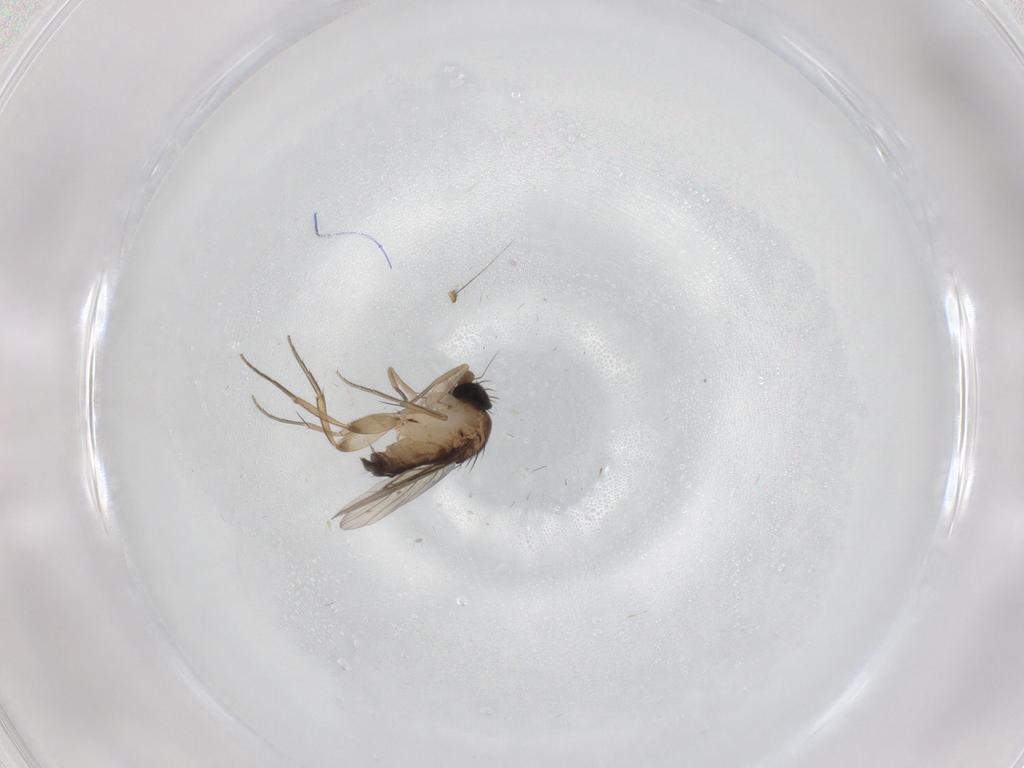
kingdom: Animalia
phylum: Arthropoda
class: Insecta
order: Diptera
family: Phoridae
